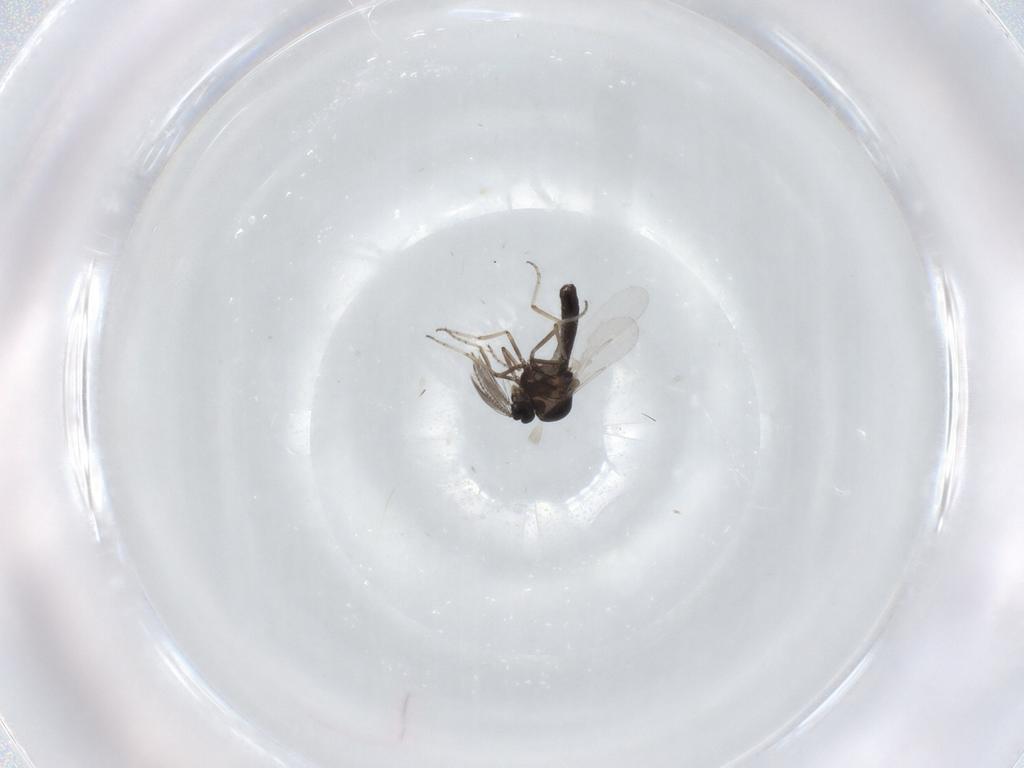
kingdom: Animalia
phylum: Arthropoda
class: Insecta
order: Diptera
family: Ceratopogonidae
